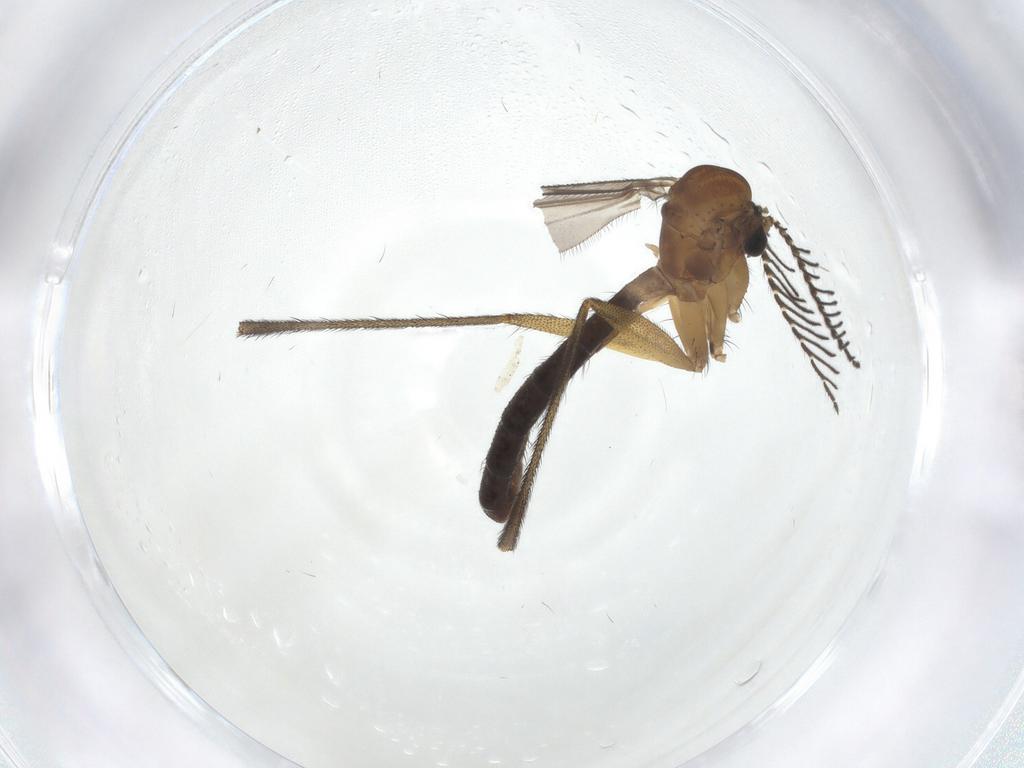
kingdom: Animalia
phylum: Arthropoda
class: Insecta
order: Diptera
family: Ditomyiidae
